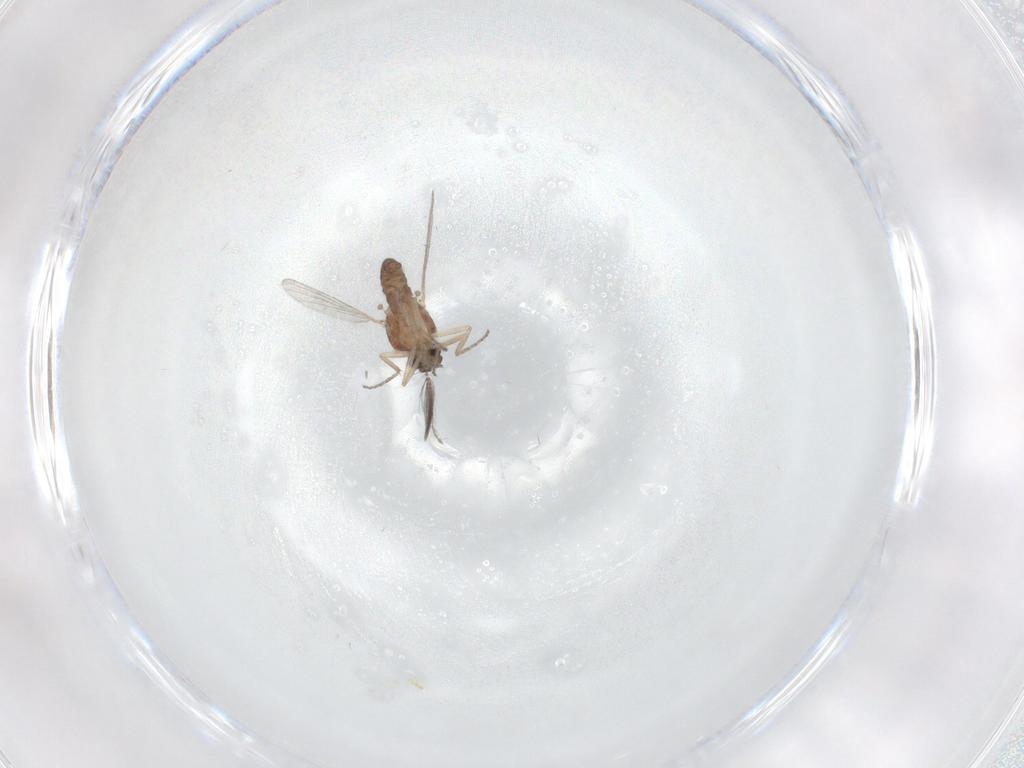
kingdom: Animalia
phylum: Arthropoda
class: Insecta
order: Diptera
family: Ceratopogonidae
